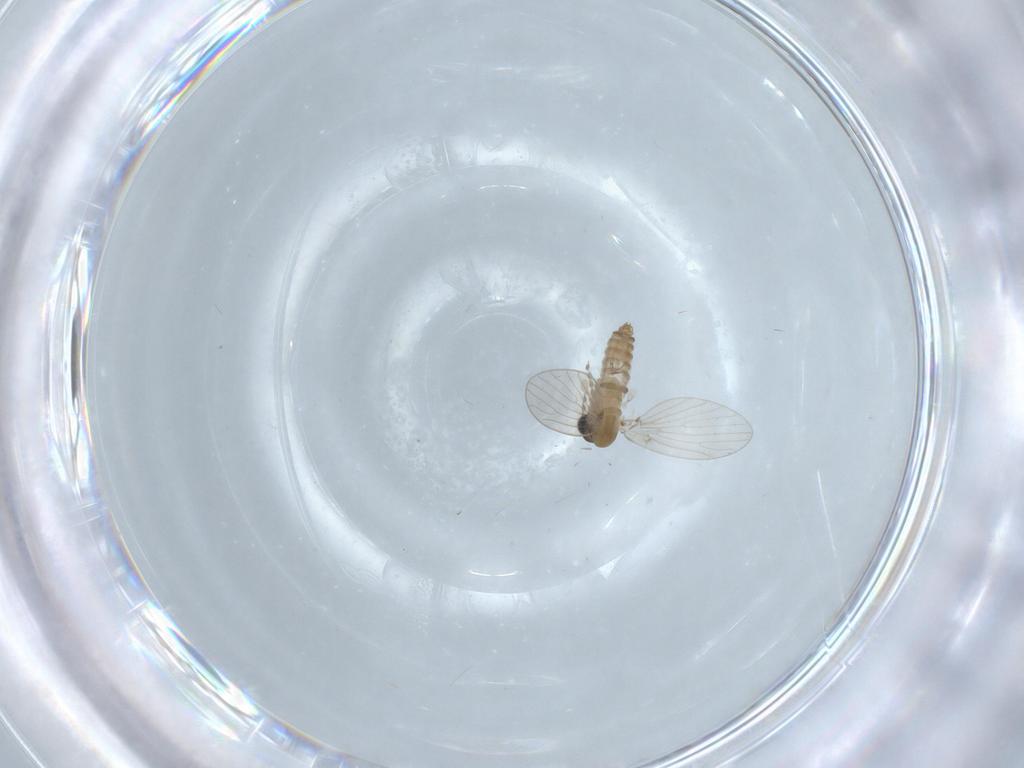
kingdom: Animalia
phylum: Arthropoda
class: Insecta
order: Diptera
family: Psychodidae
